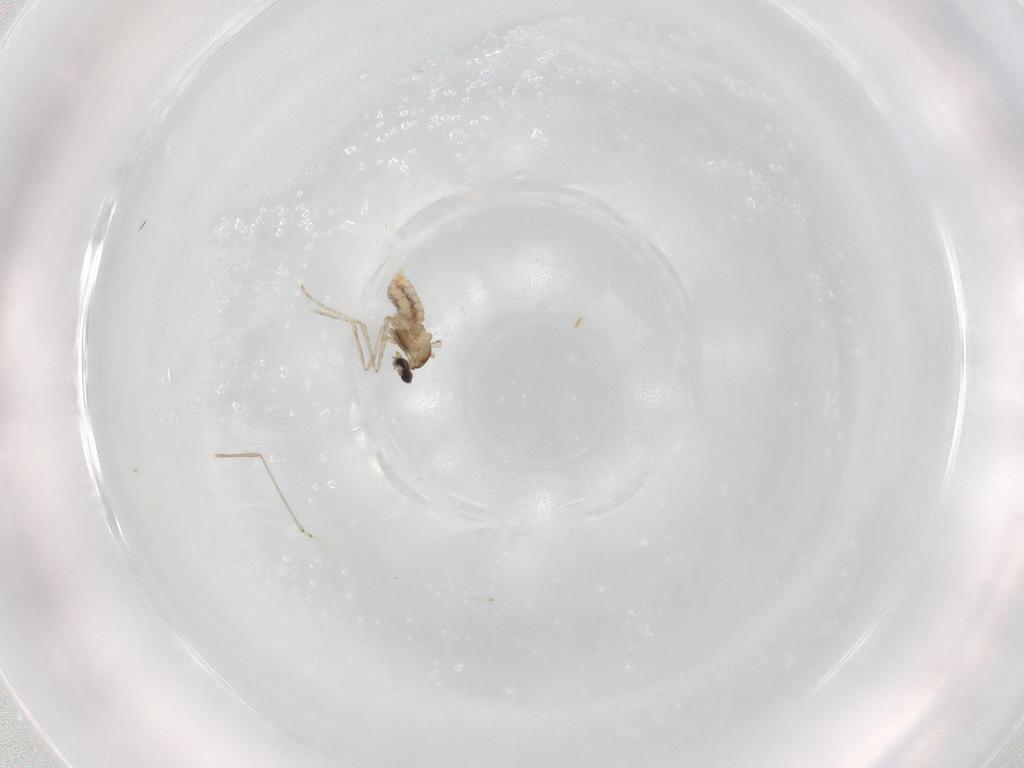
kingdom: Animalia
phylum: Arthropoda
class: Insecta
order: Diptera
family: Cecidomyiidae
